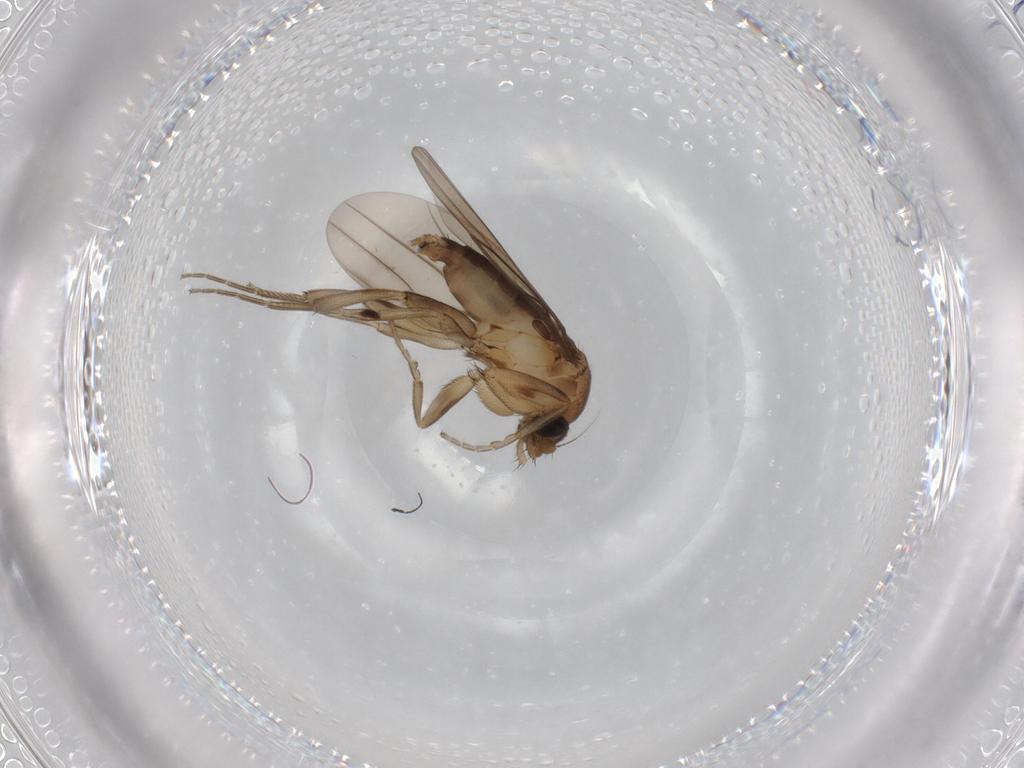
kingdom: Animalia
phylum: Arthropoda
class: Insecta
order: Diptera
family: Phoridae
